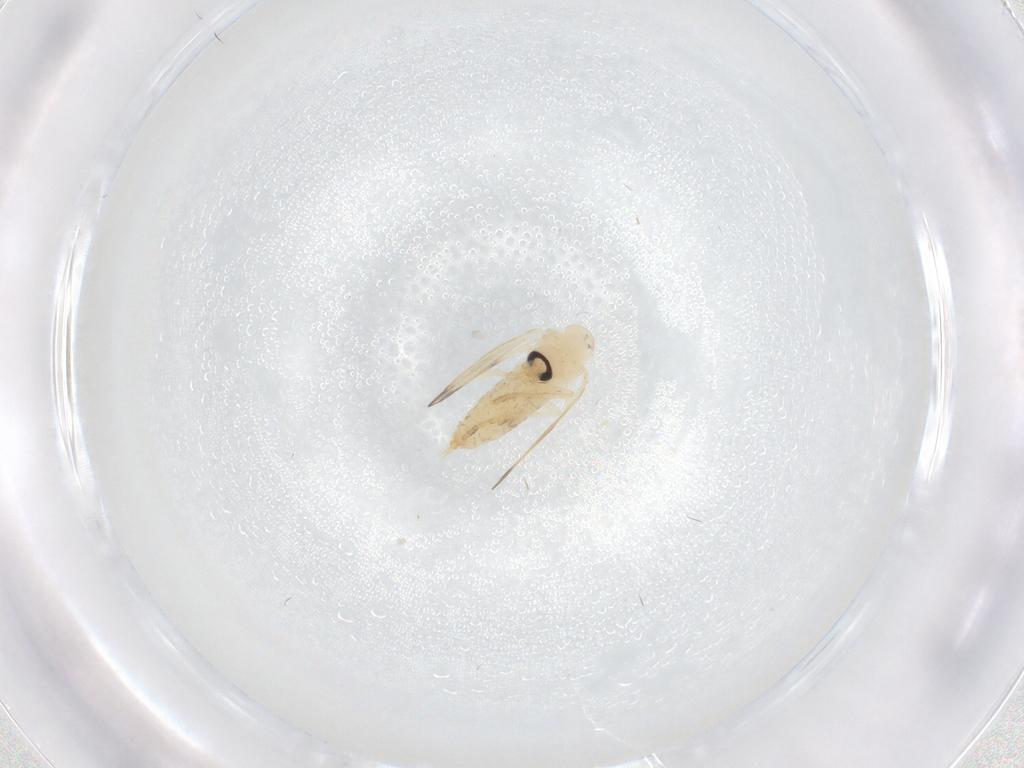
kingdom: Animalia
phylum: Arthropoda
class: Insecta
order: Diptera
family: Psychodidae
